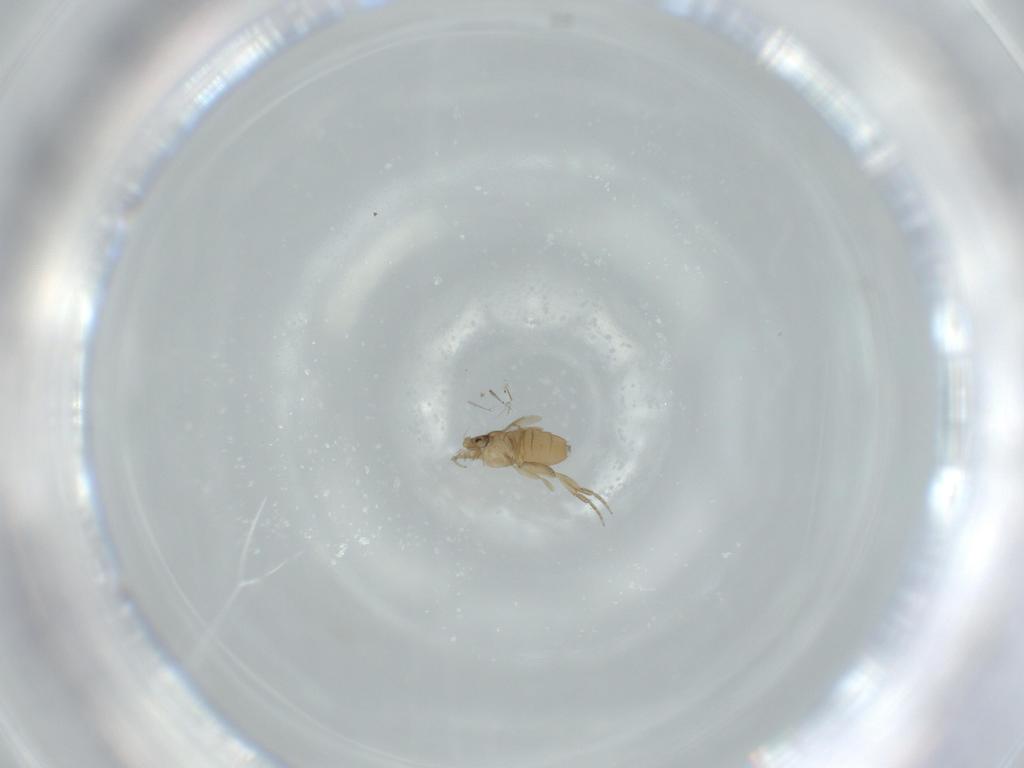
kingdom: Animalia
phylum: Arthropoda
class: Insecta
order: Diptera
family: Phoridae
